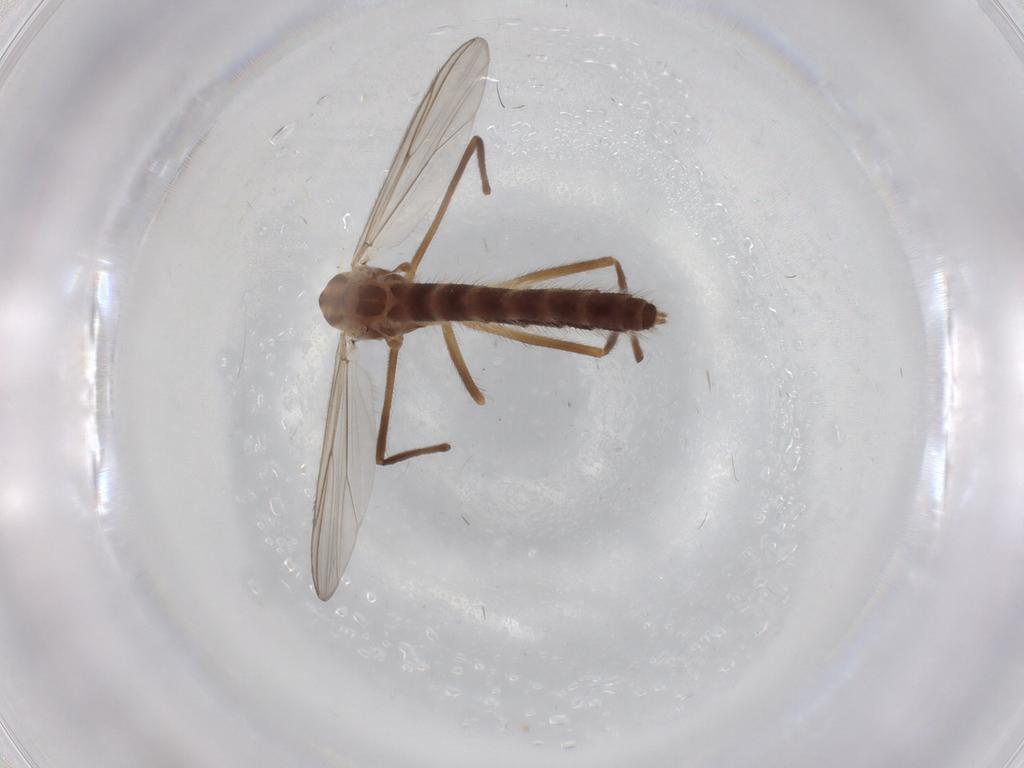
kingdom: Animalia
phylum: Arthropoda
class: Insecta
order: Diptera
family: Chironomidae
